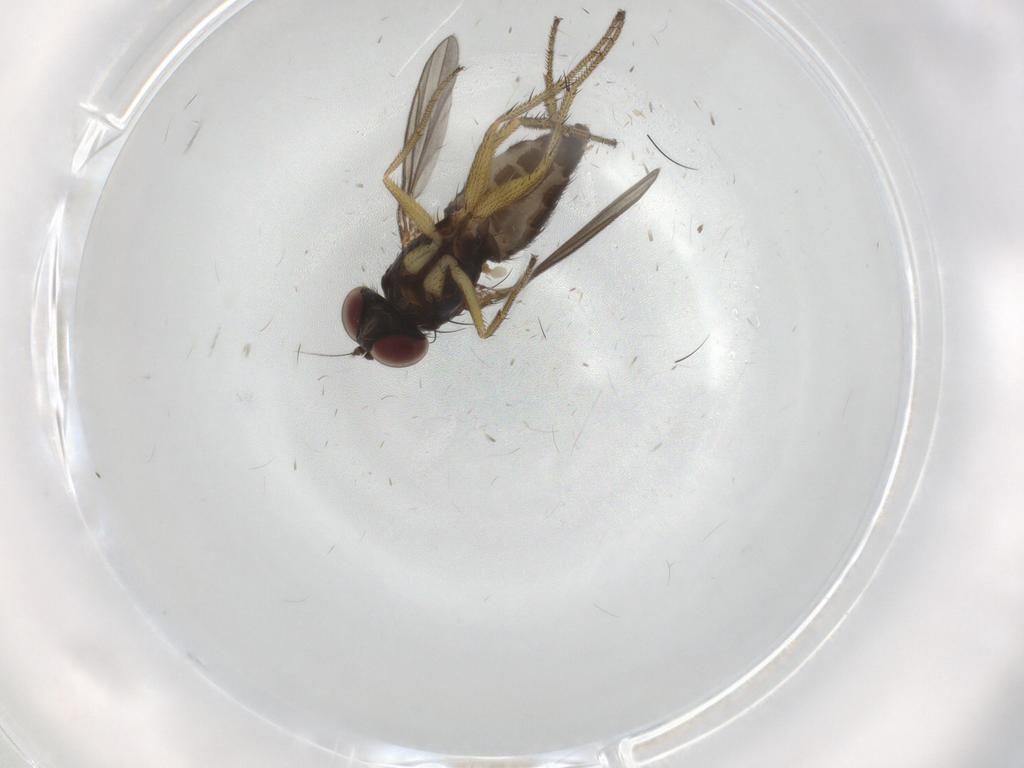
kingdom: Animalia
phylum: Arthropoda
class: Insecta
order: Diptera
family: Dolichopodidae
